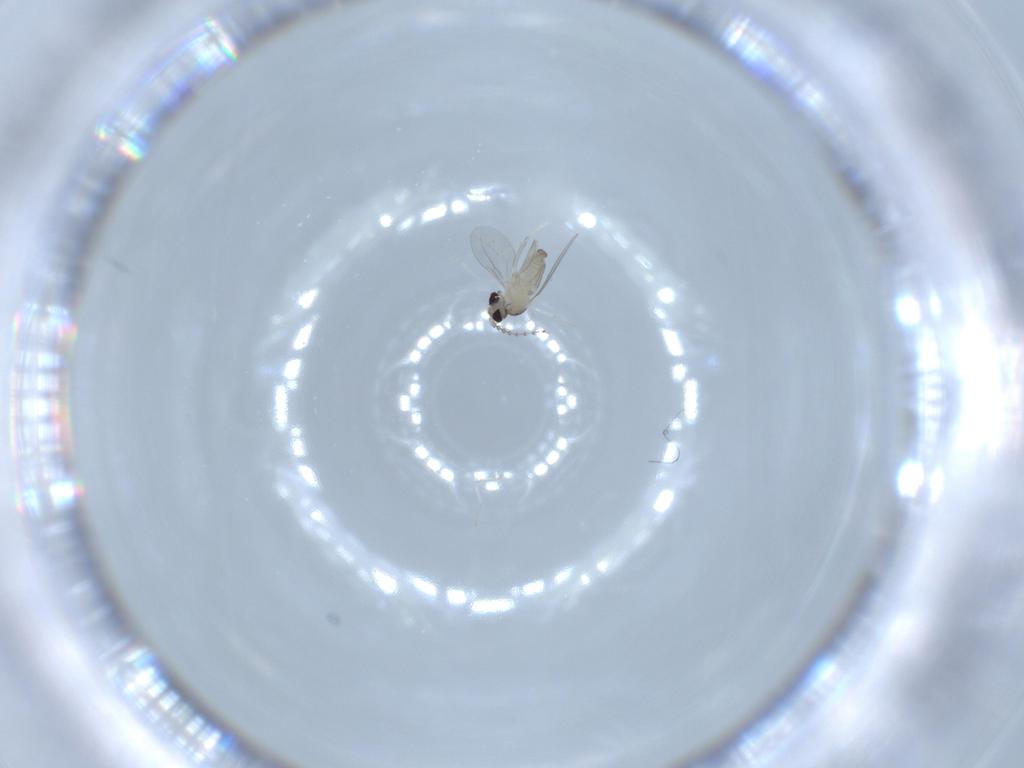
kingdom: Animalia
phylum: Arthropoda
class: Insecta
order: Diptera
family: Cecidomyiidae
